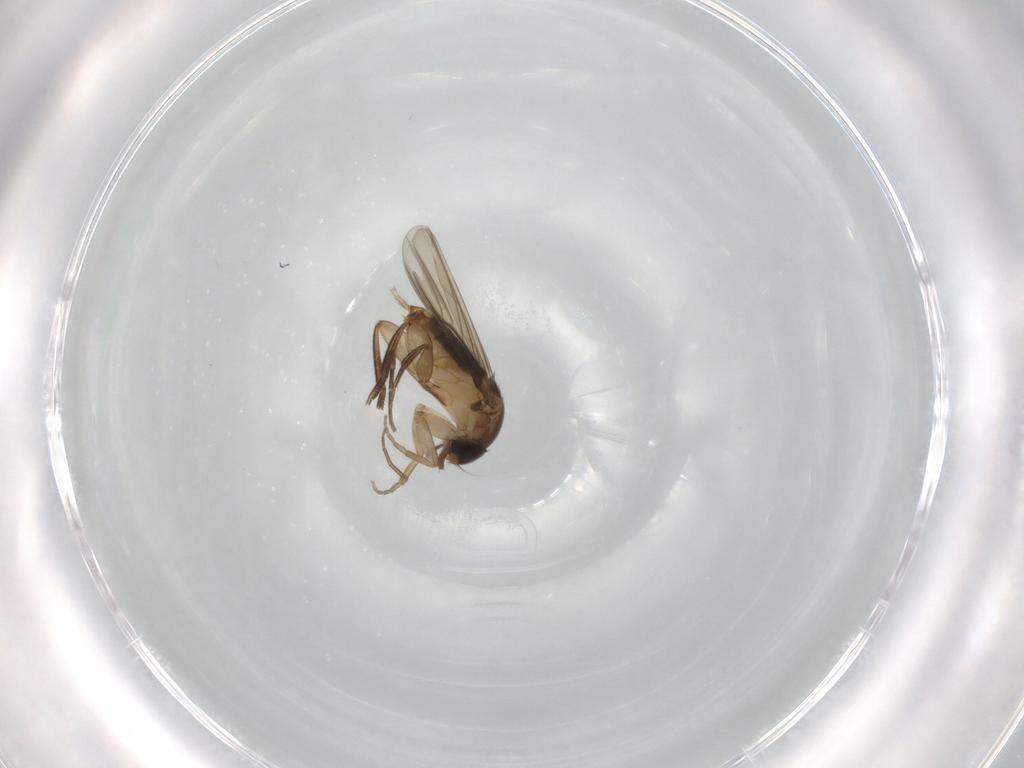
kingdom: Animalia
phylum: Arthropoda
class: Insecta
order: Diptera
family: Phoridae
